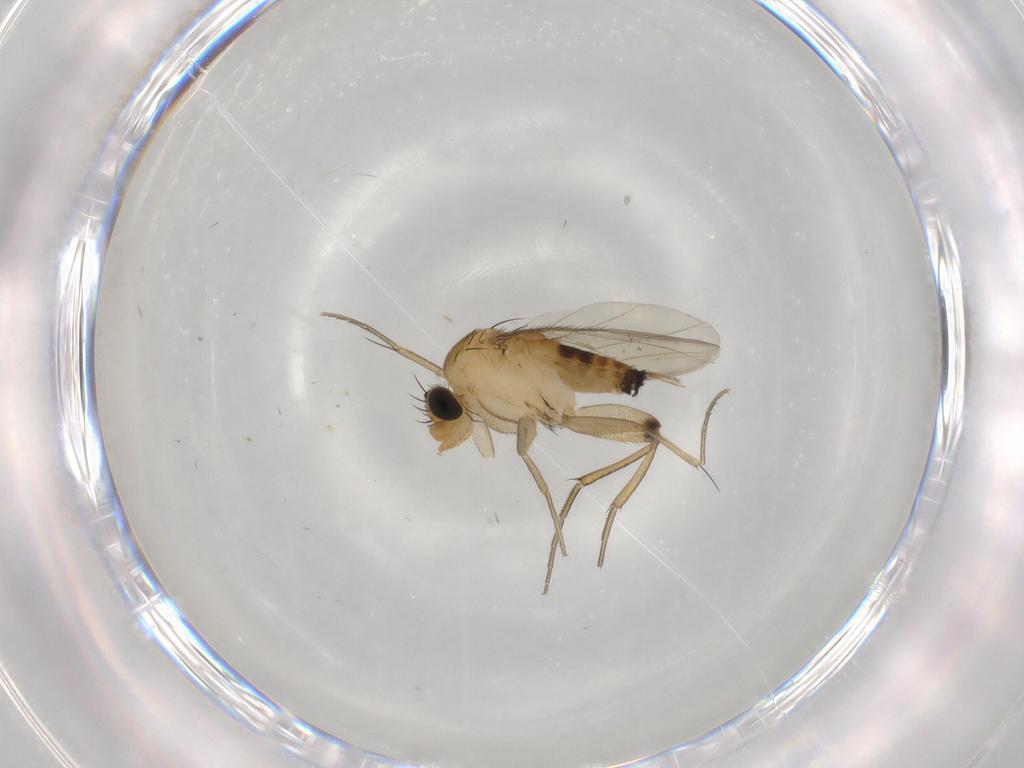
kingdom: Animalia
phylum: Arthropoda
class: Insecta
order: Diptera
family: Phoridae
